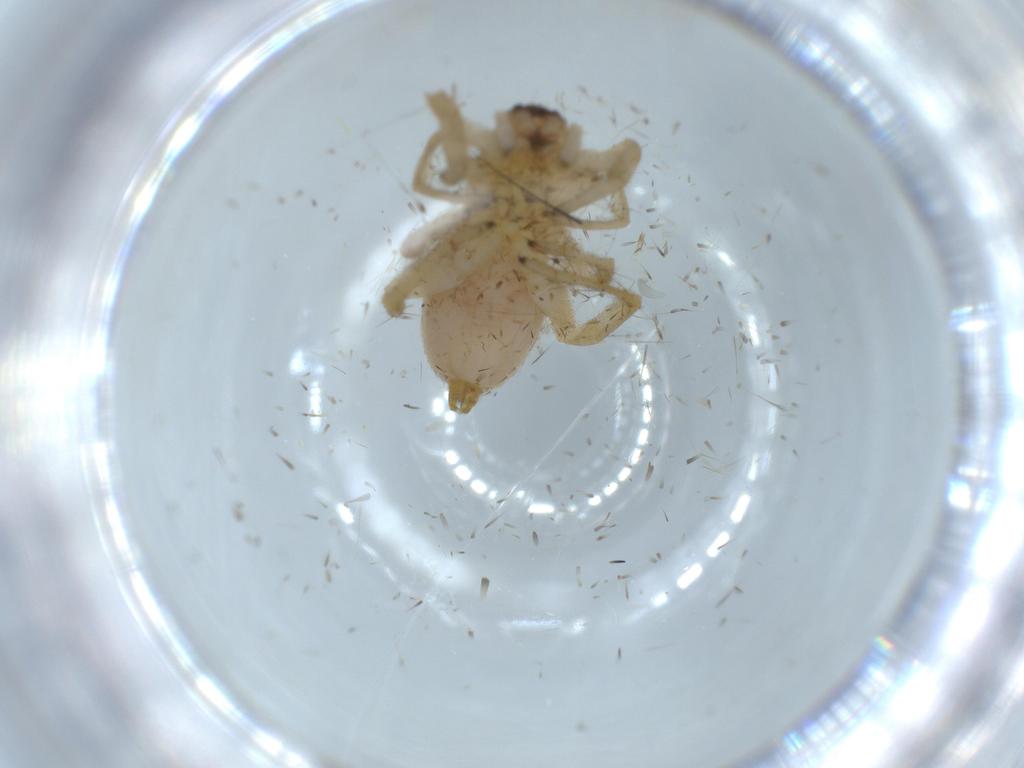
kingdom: Animalia
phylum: Arthropoda
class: Arachnida
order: Araneae
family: Clubionidae
